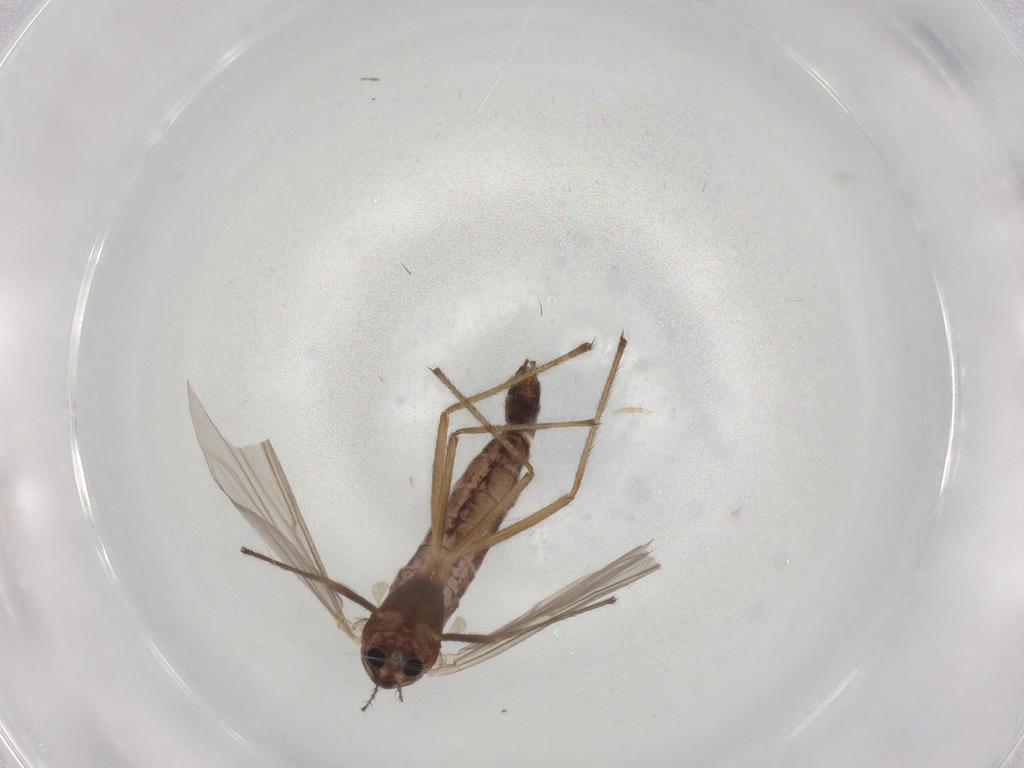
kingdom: Animalia
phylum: Arthropoda
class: Insecta
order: Diptera
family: Chironomidae
